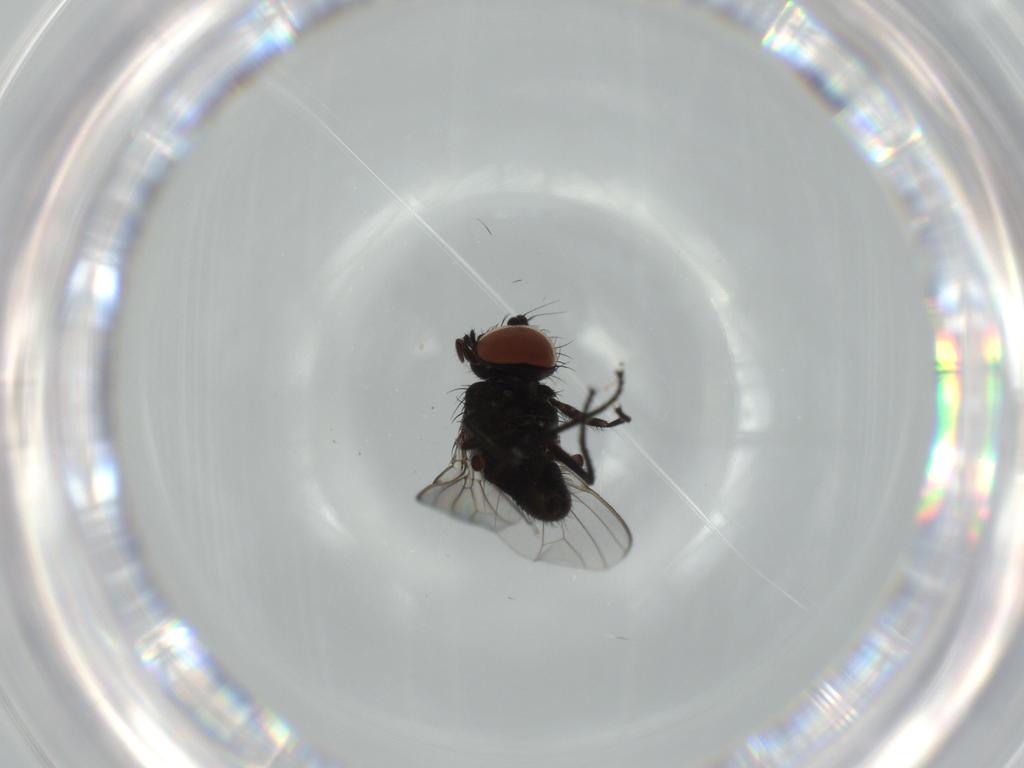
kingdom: Animalia
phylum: Arthropoda
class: Insecta
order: Diptera
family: Milichiidae
